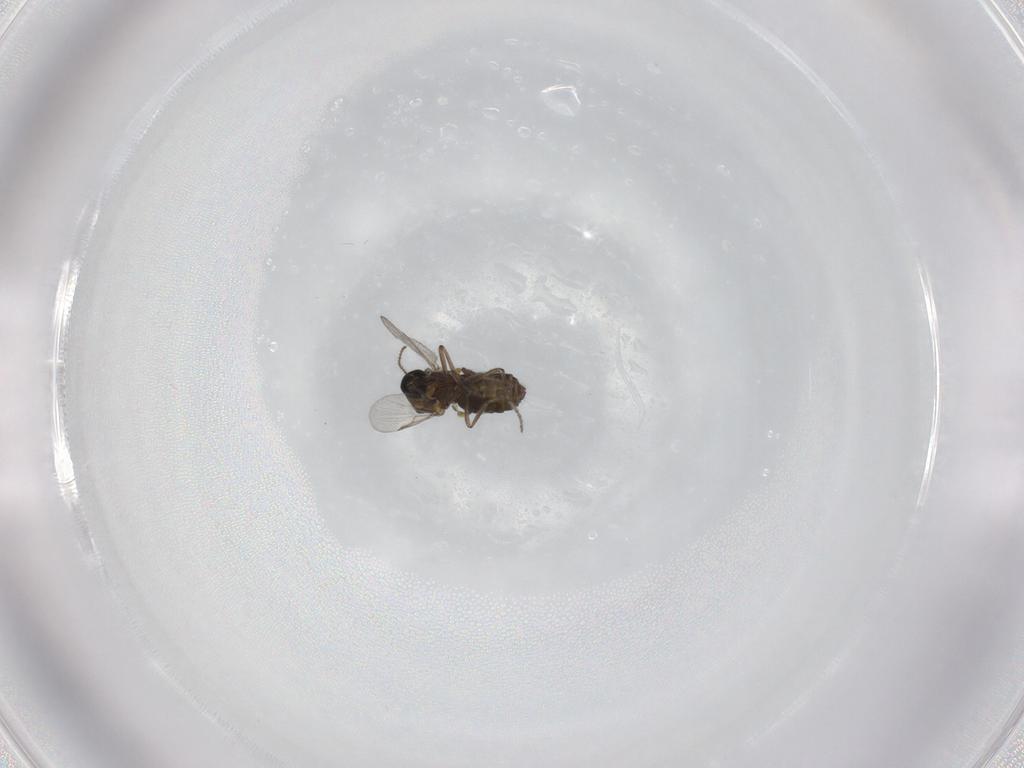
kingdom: Animalia
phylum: Arthropoda
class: Insecta
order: Diptera
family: Ceratopogonidae
